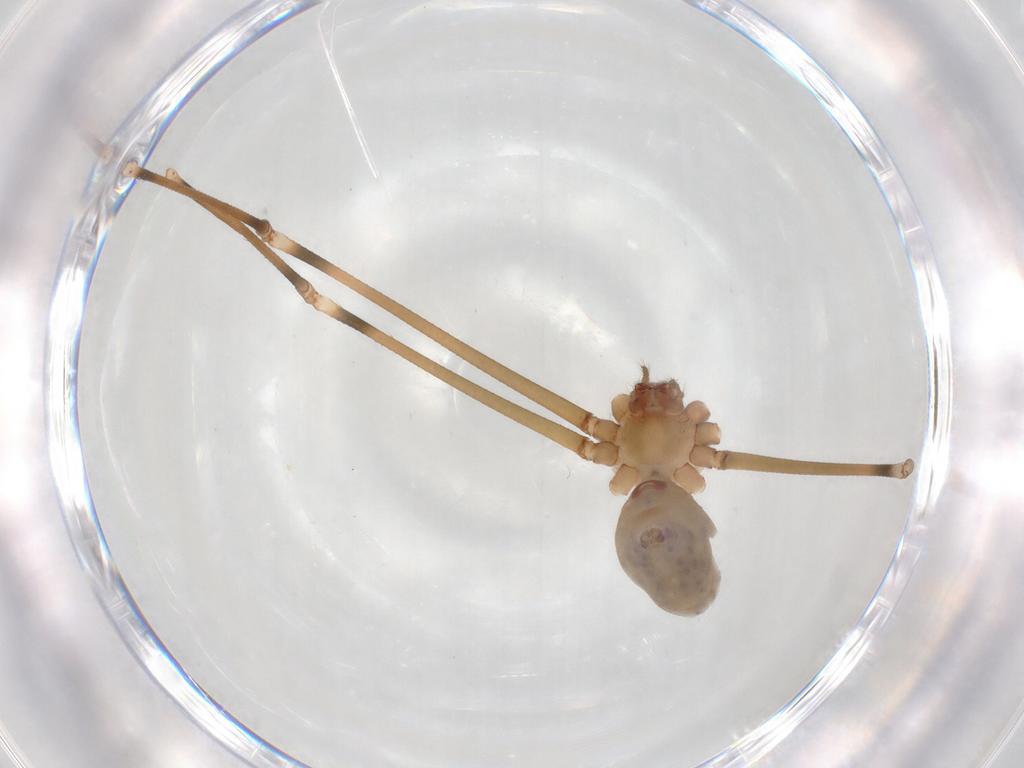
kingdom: Animalia
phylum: Arthropoda
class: Arachnida
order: Araneae
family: Pholcidae
